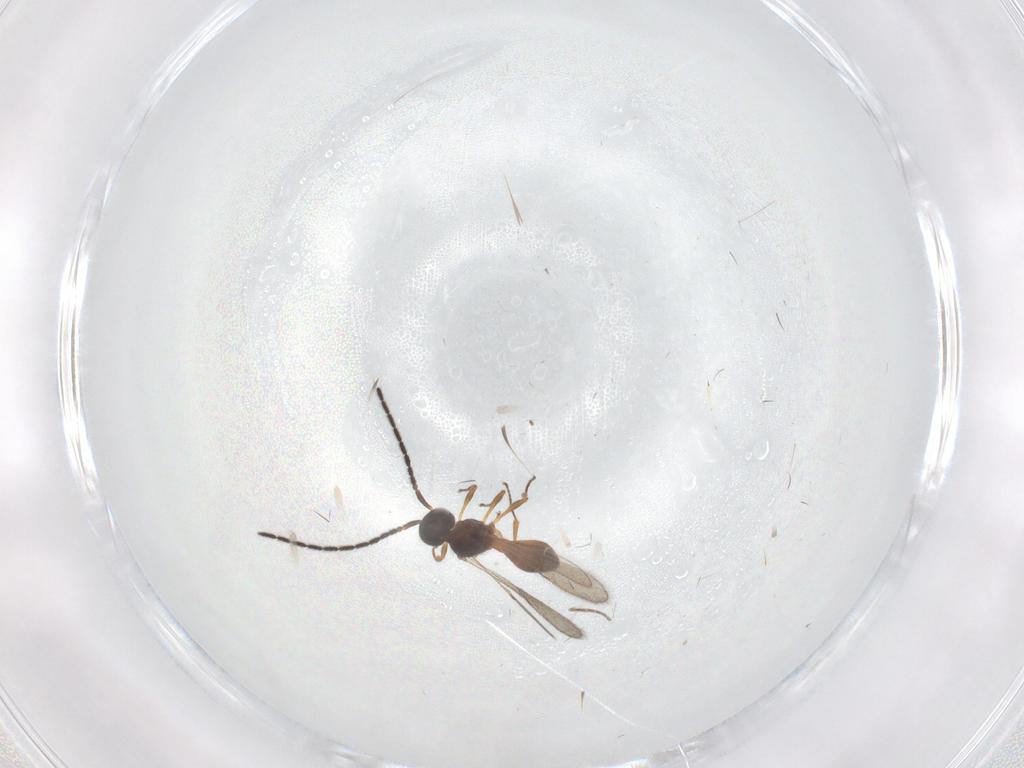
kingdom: Animalia
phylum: Arthropoda
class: Insecta
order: Hymenoptera
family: Scelionidae
